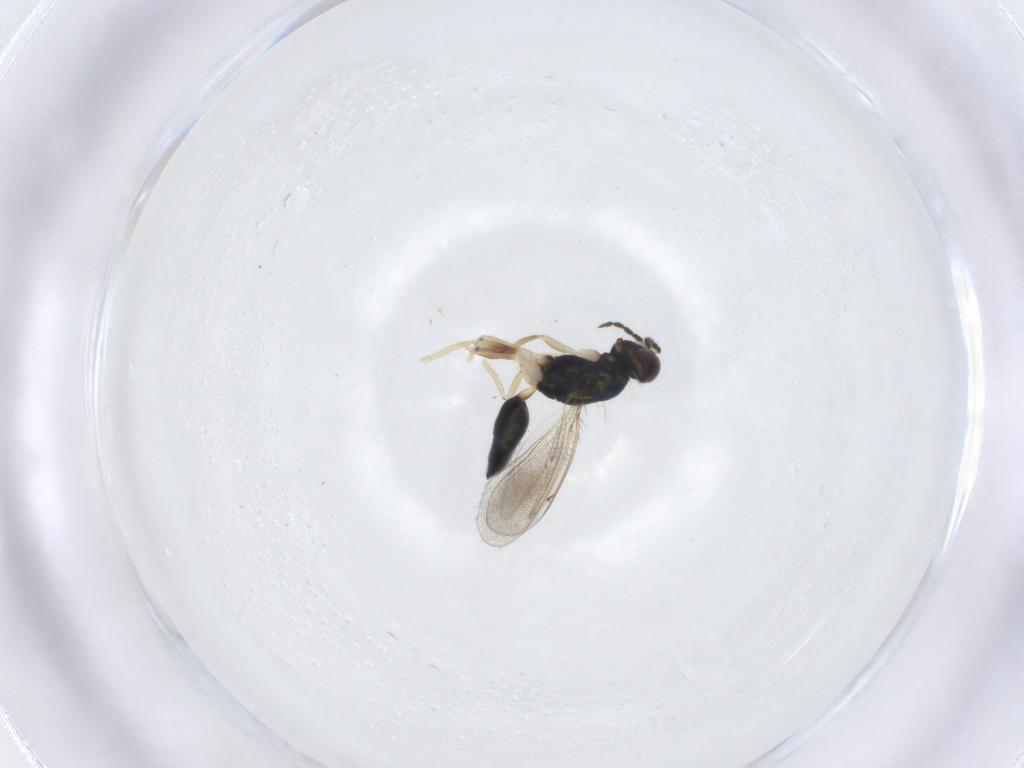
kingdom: Animalia
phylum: Arthropoda
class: Insecta
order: Hymenoptera
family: Eulophidae
